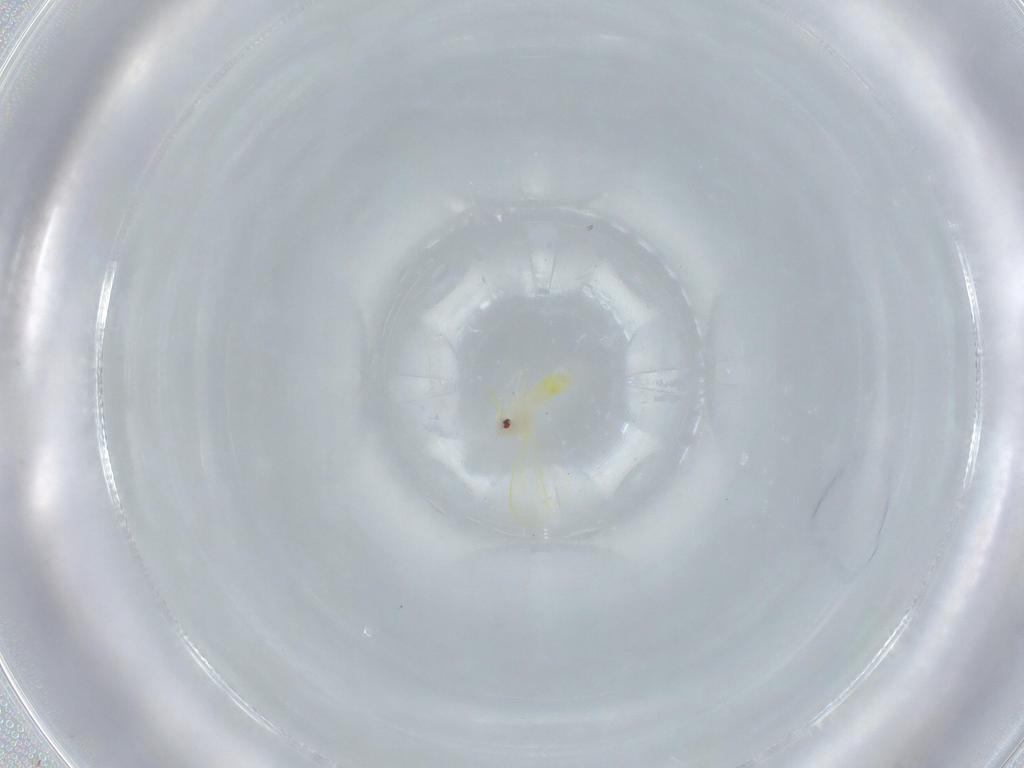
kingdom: Animalia
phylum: Arthropoda
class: Insecta
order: Hemiptera
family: Aleyrodidae
